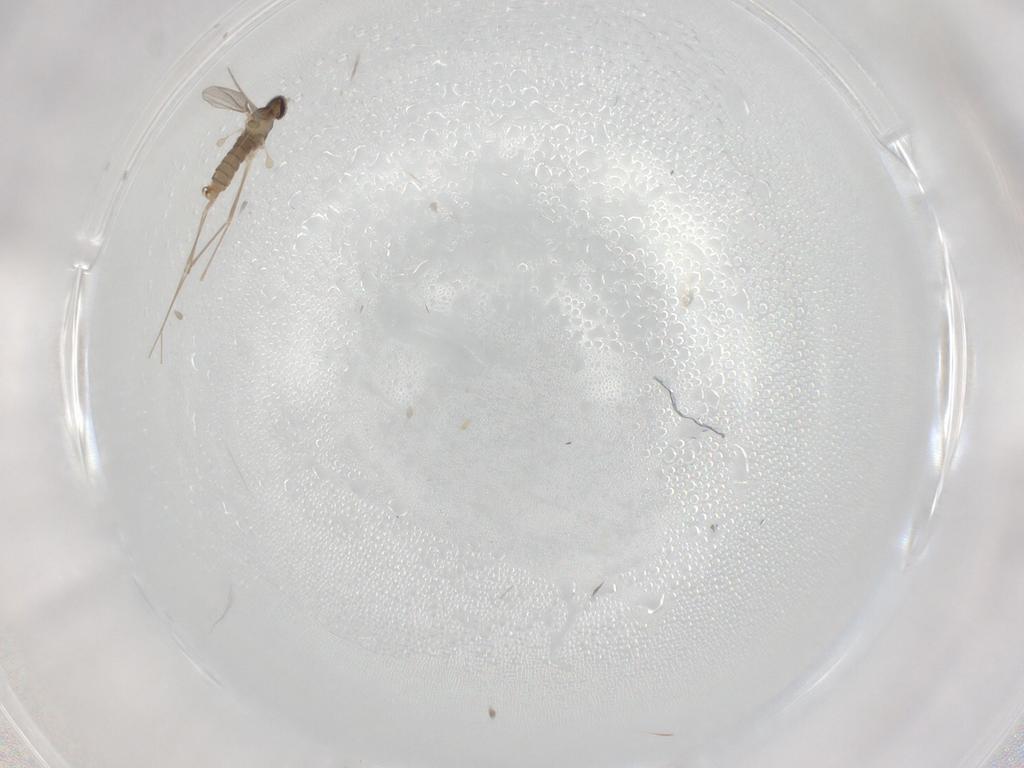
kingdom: Animalia
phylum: Arthropoda
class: Insecta
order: Diptera
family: Cecidomyiidae
